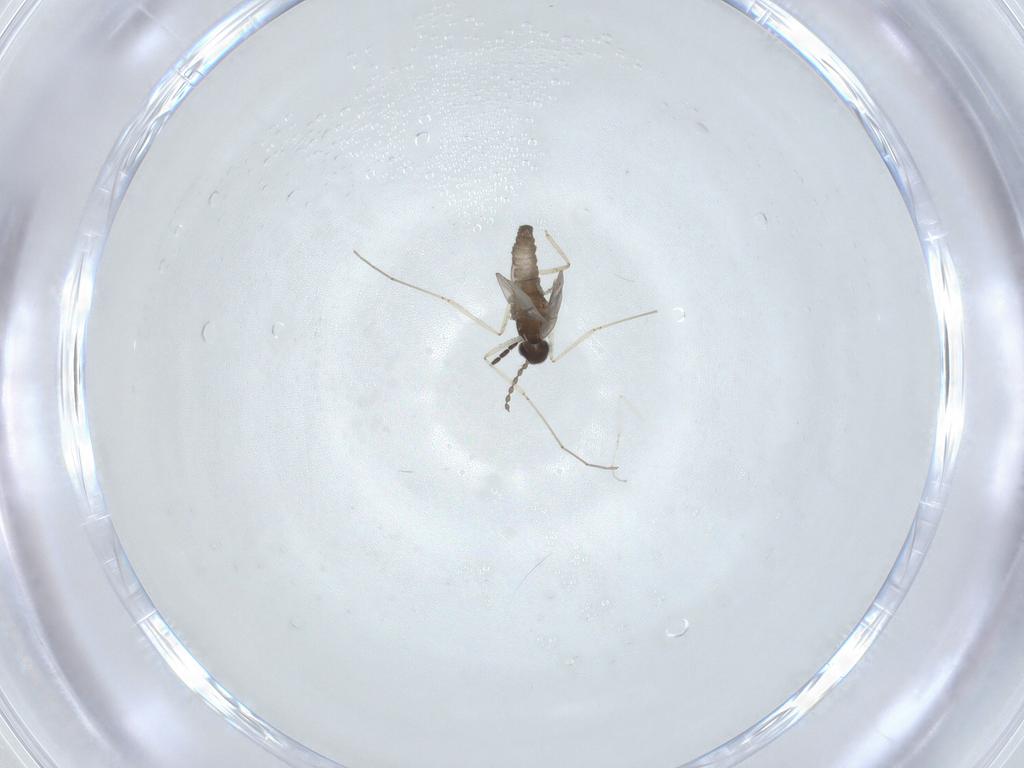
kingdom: Animalia
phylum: Arthropoda
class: Insecta
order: Diptera
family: Cecidomyiidae
